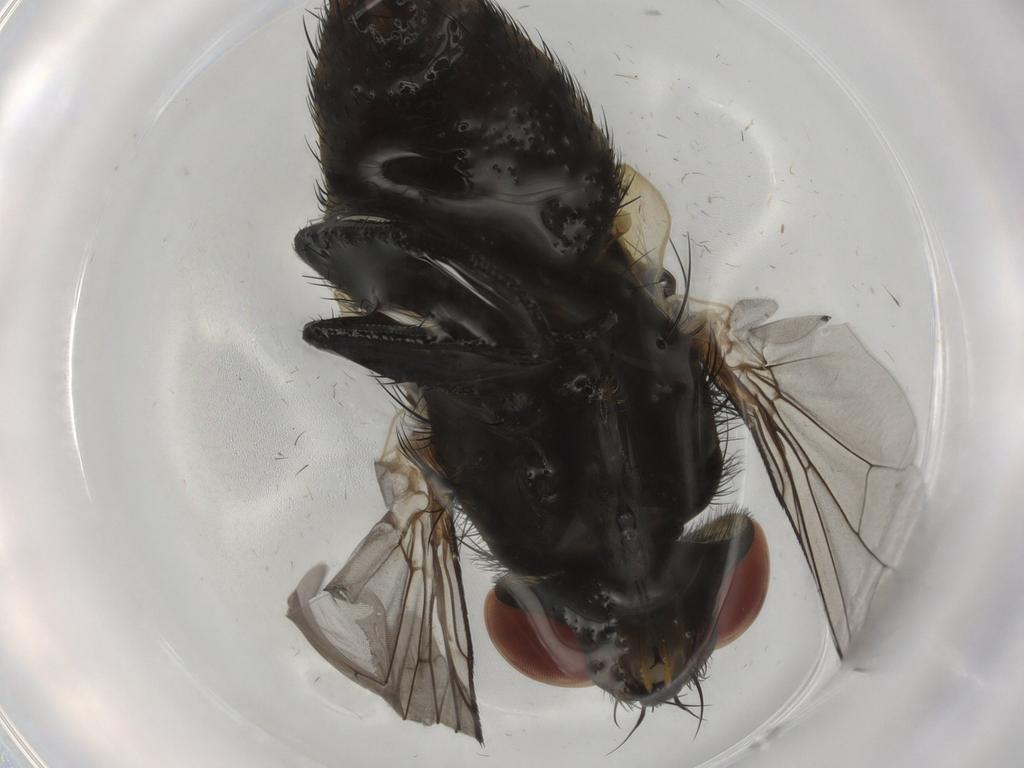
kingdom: Animalia
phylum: Arthropoda
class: Insecta
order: Diptera
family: Sarcophagidae
